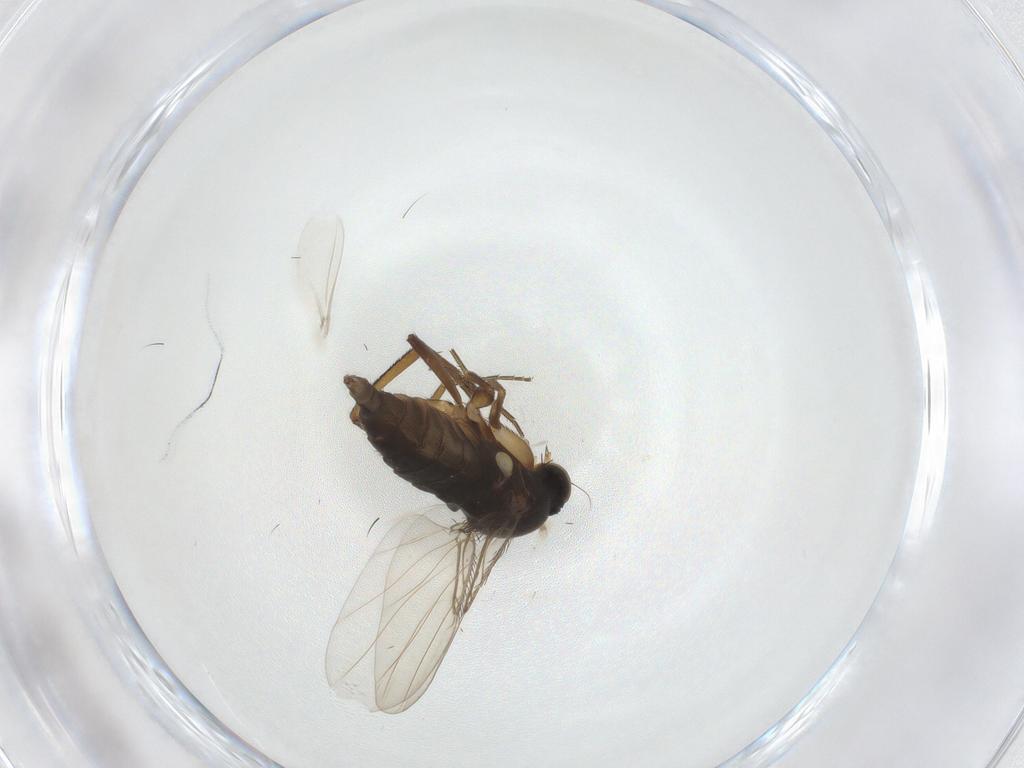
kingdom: Animalia
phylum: Arthropoda
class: Insecta
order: Diptera
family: Phoridae
